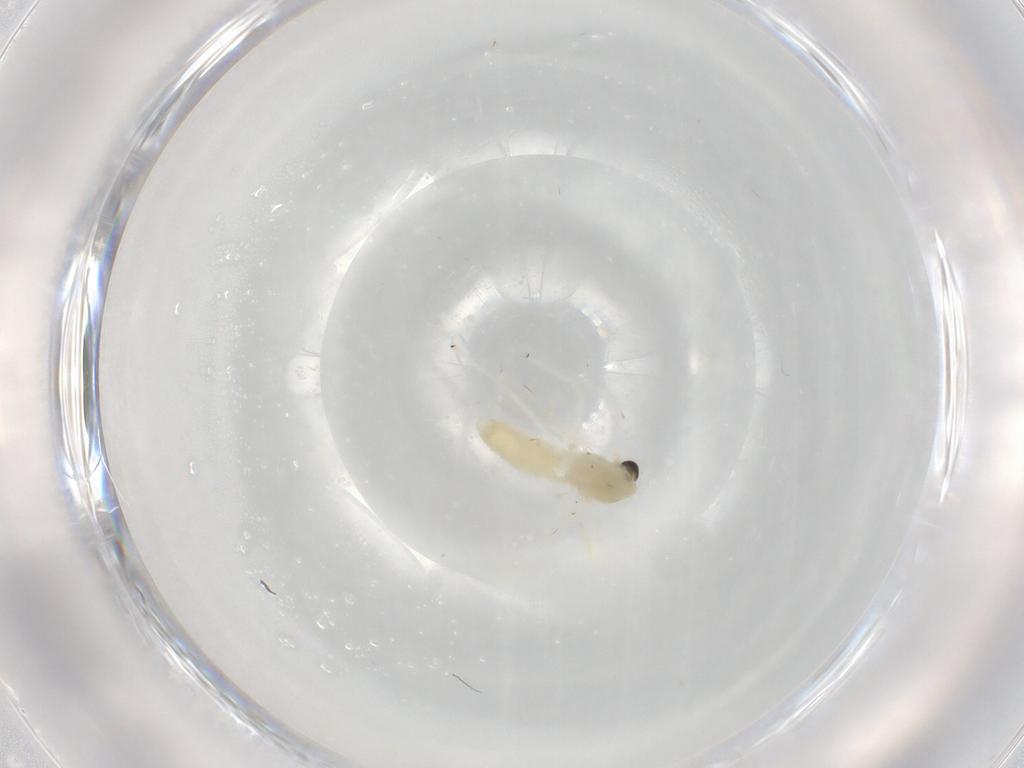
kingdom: Animalia
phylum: Arthropoda
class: Insecta
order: Diptera
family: Chironomidae
